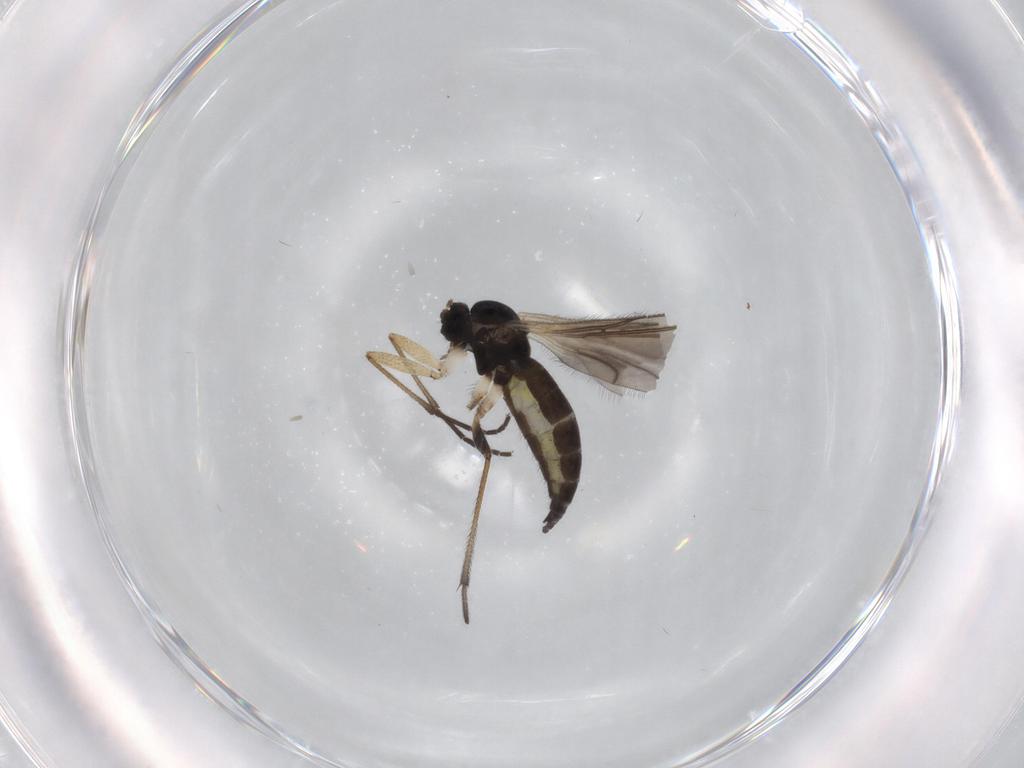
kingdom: Animalia
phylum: Arthropoda
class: Insecta
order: Diptera
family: Sciaridae
